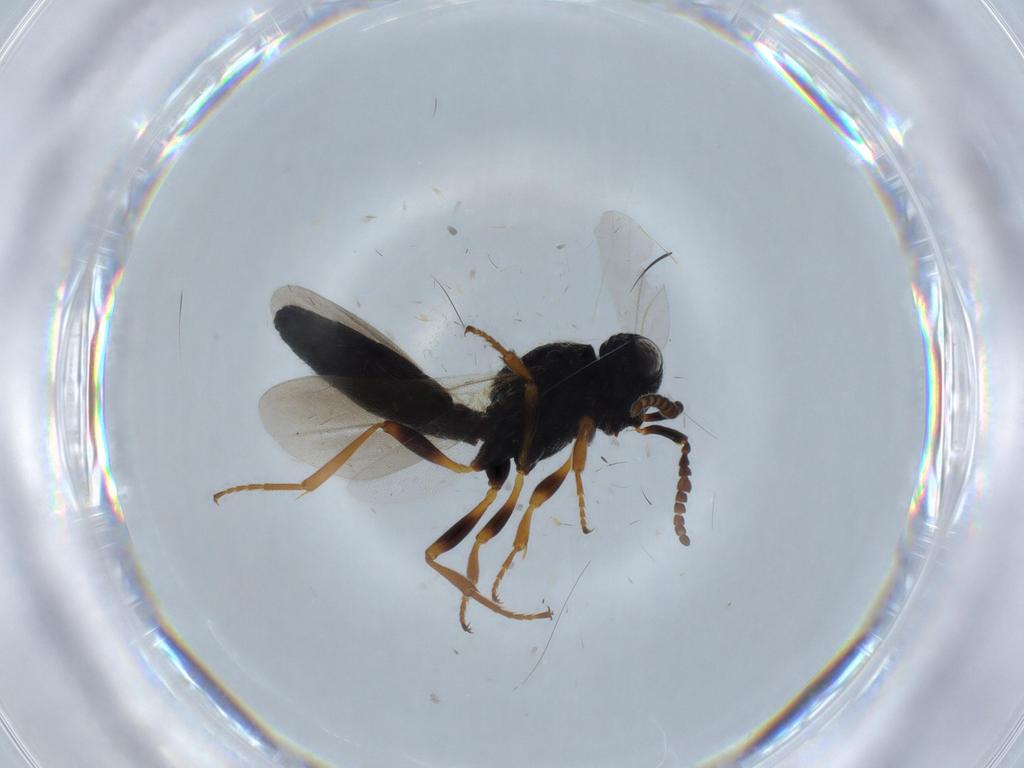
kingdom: Animalia
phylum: Arthropoda
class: Insecta
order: Hymenoptera
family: Scelionidae
